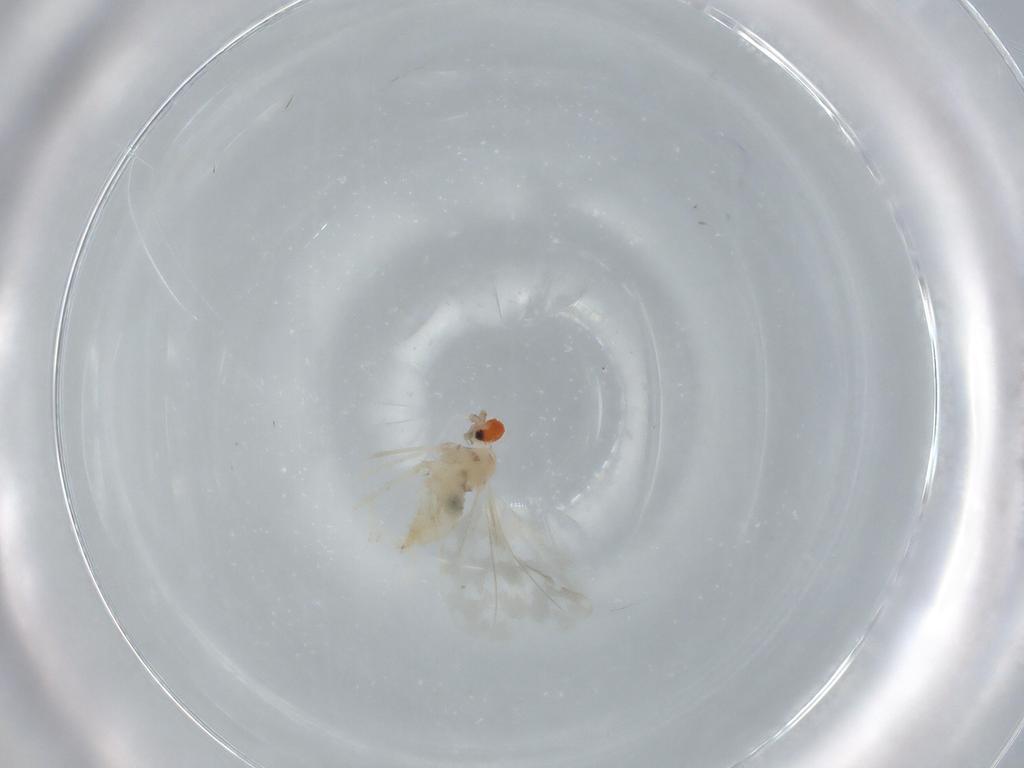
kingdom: Animalia
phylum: Arthropoda
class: Insecta
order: Diptera
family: Cecidomyiidae
